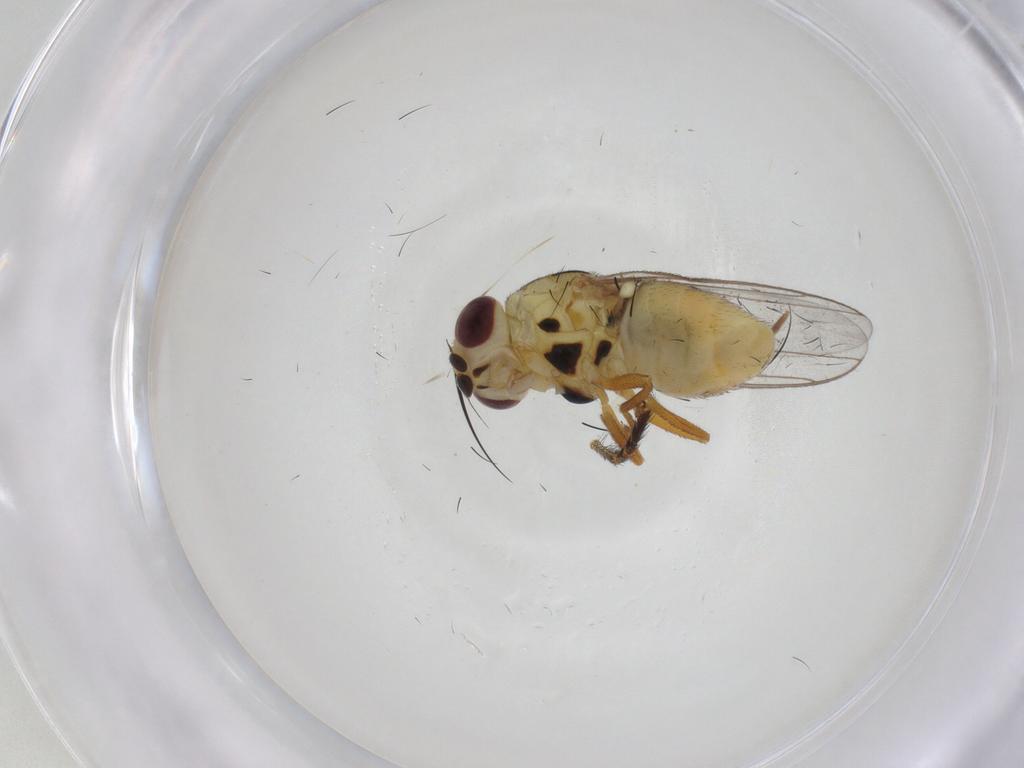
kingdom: Animalia
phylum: Arthropoda
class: Insecta
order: Diptera
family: Chloropidae
